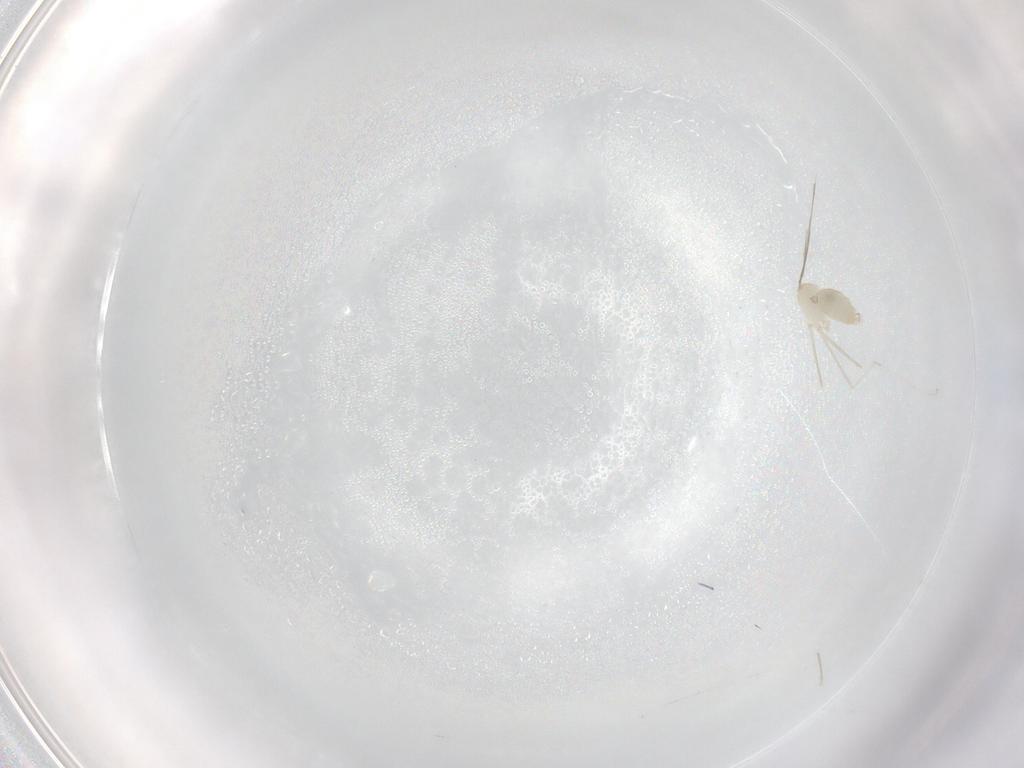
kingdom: Animalia
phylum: Arthropoda
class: Insecta
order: Diptera
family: Cecidomyiidae
